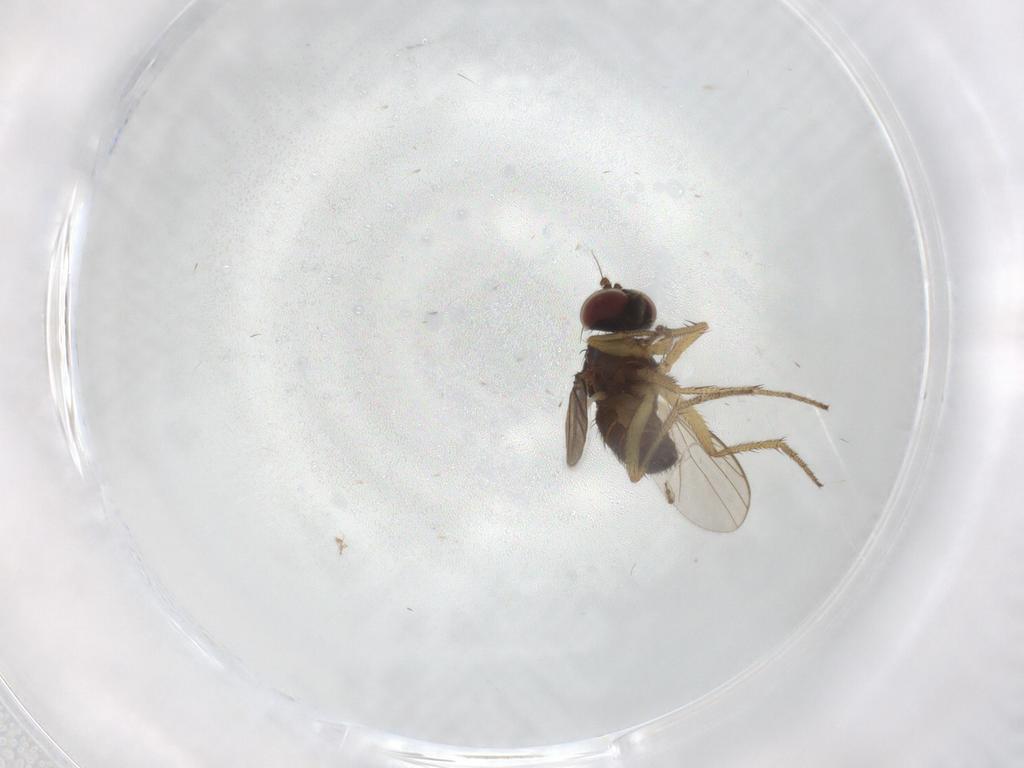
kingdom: Animalia
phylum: Arthropoda
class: Insecta
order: Diptera
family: Dolichopodidae
